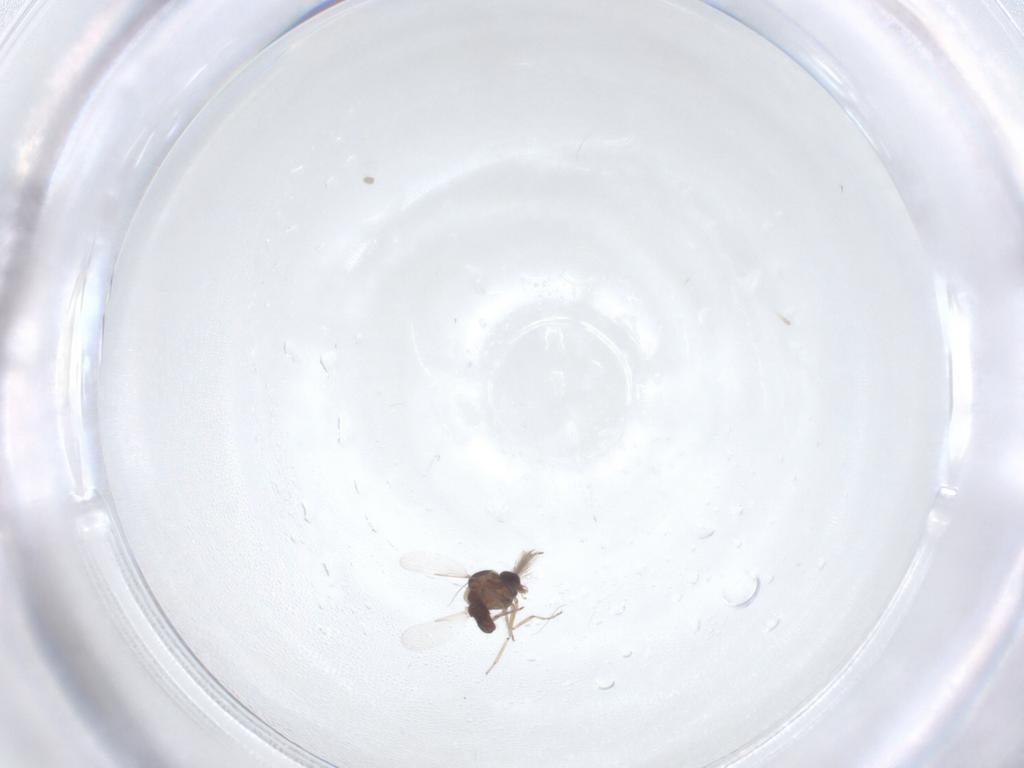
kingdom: Animalia
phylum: Arthropoda
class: Insecta
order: Diptera
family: Ceratopogonidae
